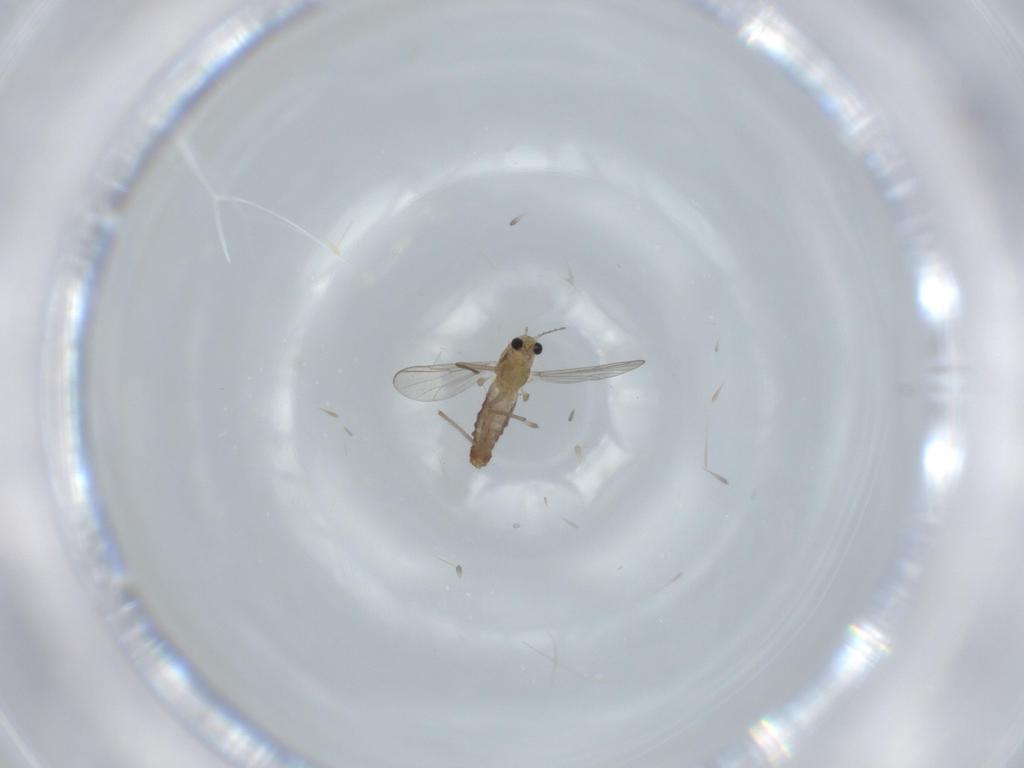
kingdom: Animalia
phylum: Arthropoda
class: Insecta
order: Diptera
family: Chironomidae
